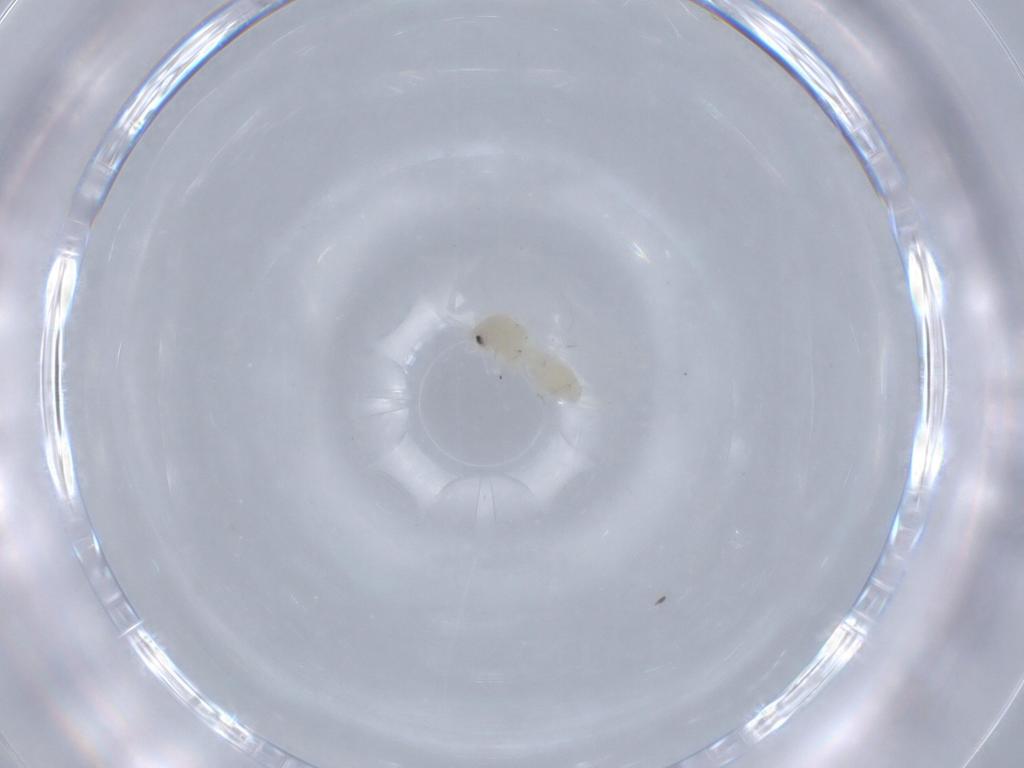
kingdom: Animalia
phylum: Arthropoda
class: Insecta
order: Hemiptera
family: Aleyrodidae
